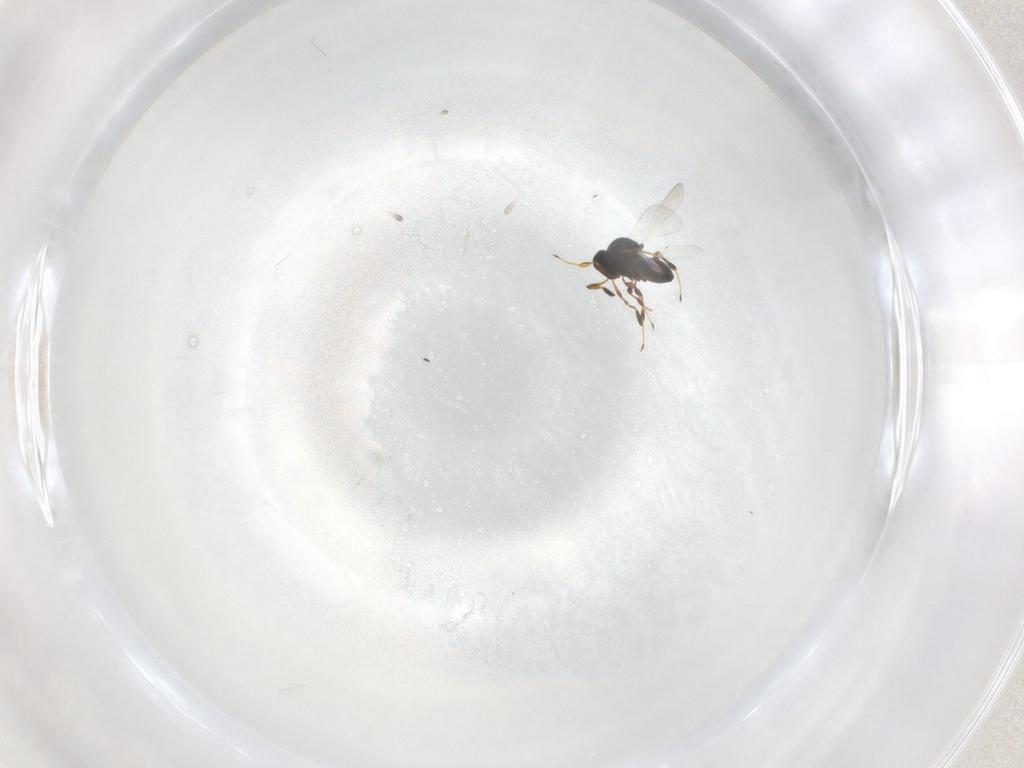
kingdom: Animalia
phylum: Arthropoda
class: Insecta
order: Hymenoptera
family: Platygastridae
